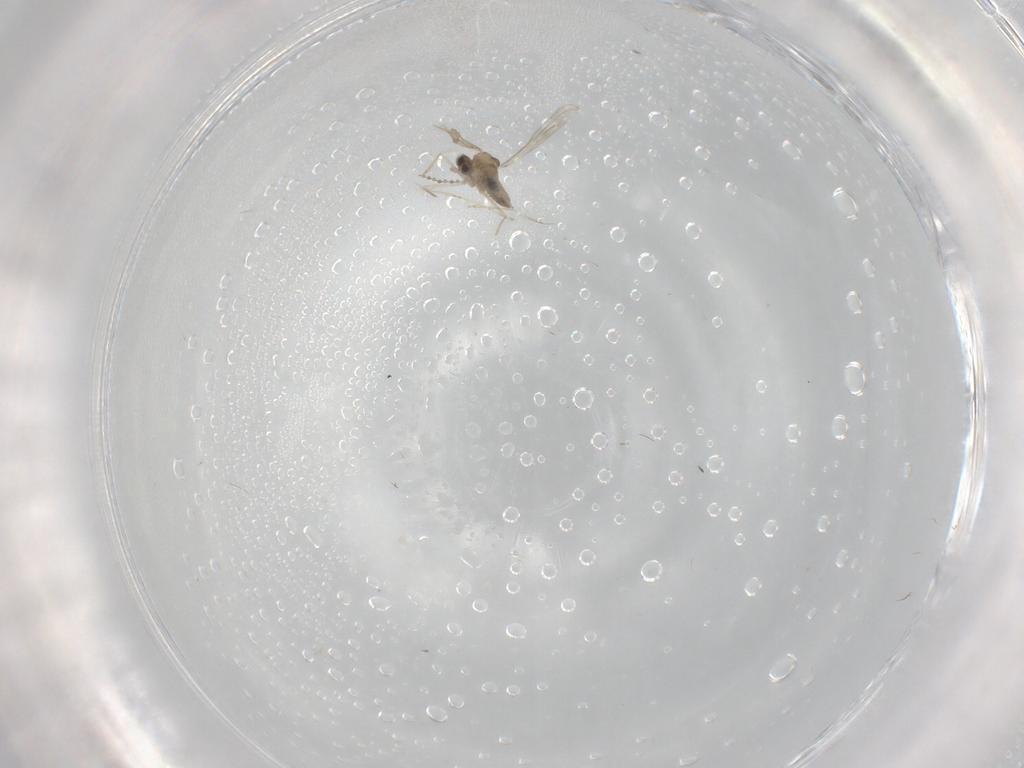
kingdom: Animalia
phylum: Arthropoda
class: Insecta
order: Diptera
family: Cecidomyiidae
